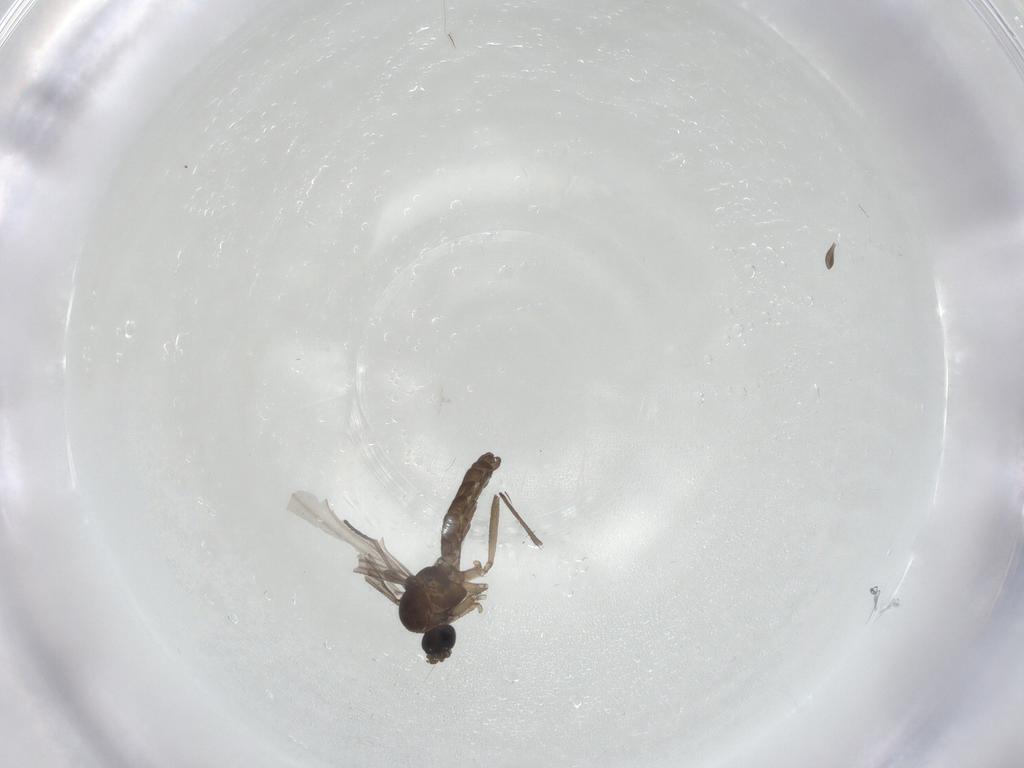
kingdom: Animalia
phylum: Arthropoda
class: Insecta
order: Diptera
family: Sciaridae
